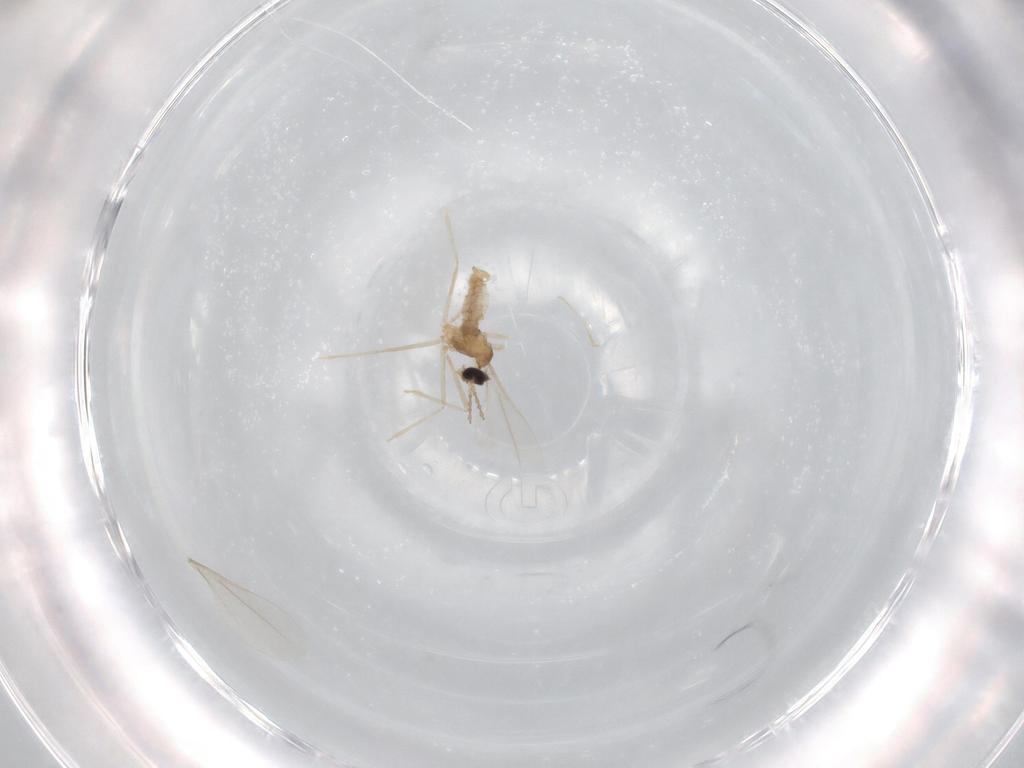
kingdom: Animalia
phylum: Arthropoda
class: Insecta
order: Diptera
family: Cecidomyiidae
